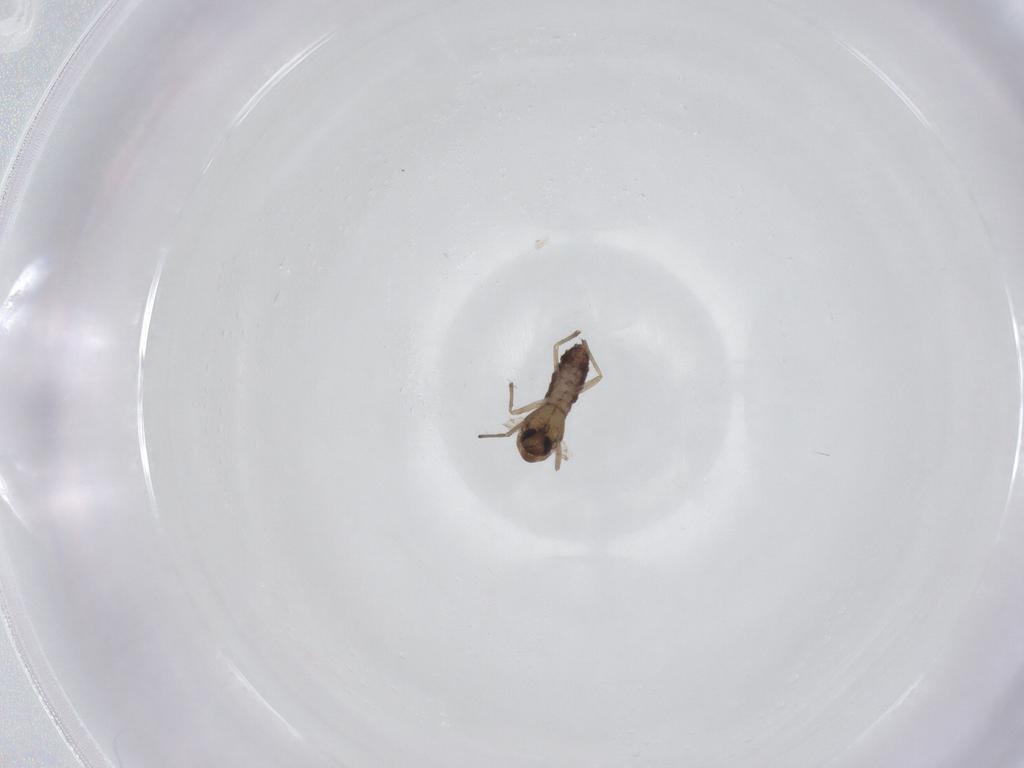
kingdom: Animalia
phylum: Arthropoda
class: Insecta
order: Diptera
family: Chironomidae
